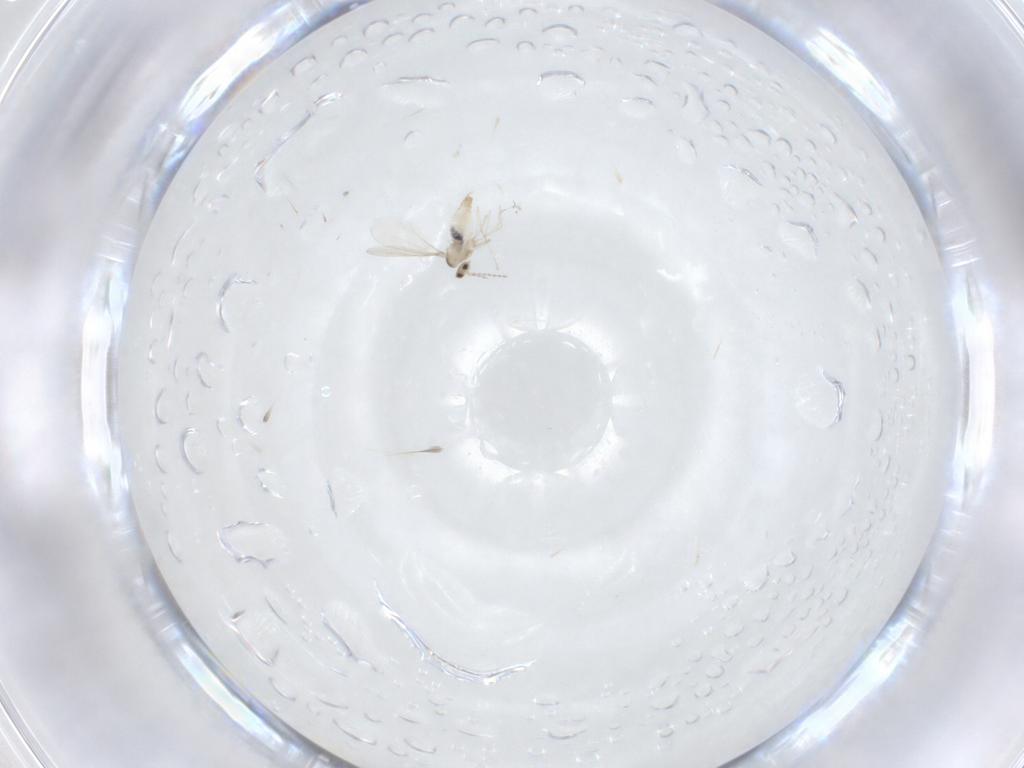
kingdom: Animalia
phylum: Arthropoda
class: Insecta
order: Diptera
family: Cecidomyiidae
